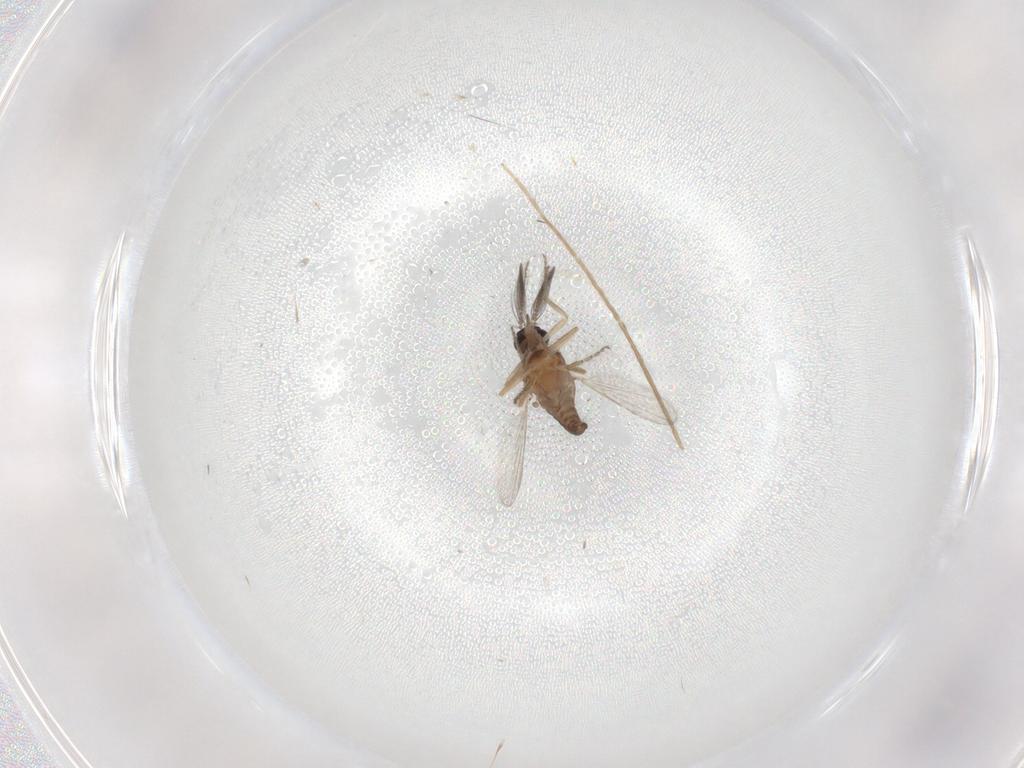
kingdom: Animalia
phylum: Arthropoda
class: Insecta
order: Diptera
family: Ceratopogonidae
